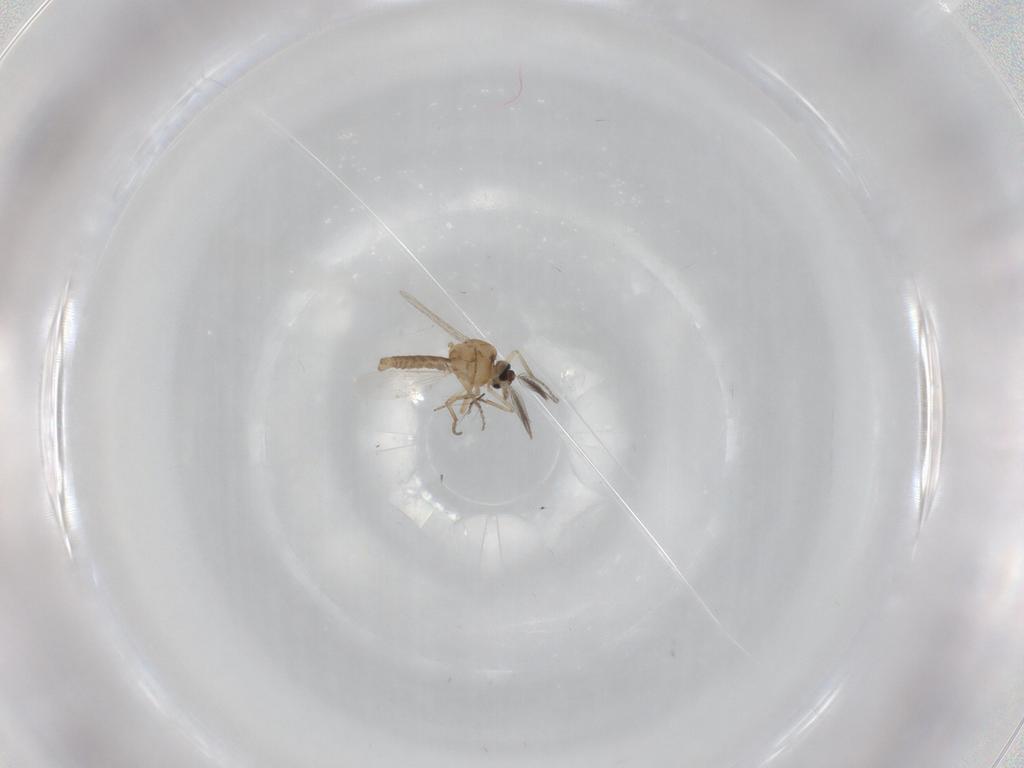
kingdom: Animalia
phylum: Arthropoda
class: Insecta
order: Diptera
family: Ceratopogonidae
